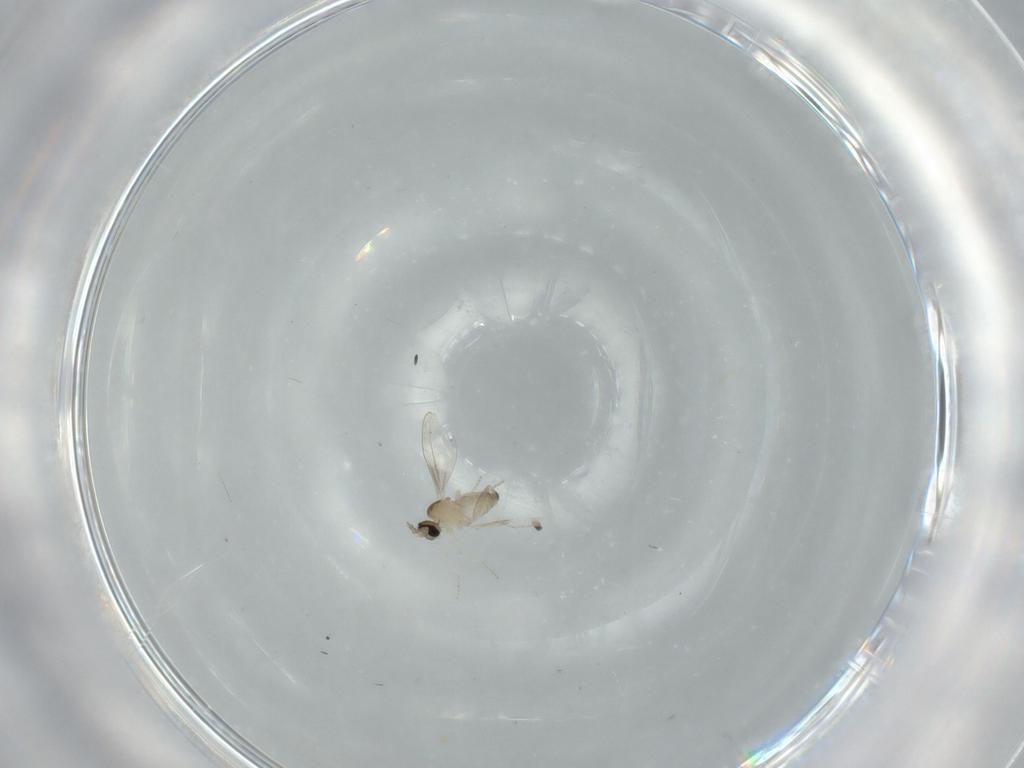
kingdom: Animalia
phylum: Arthropoda
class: Insecta
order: Diptera
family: Cecidomyiidae
